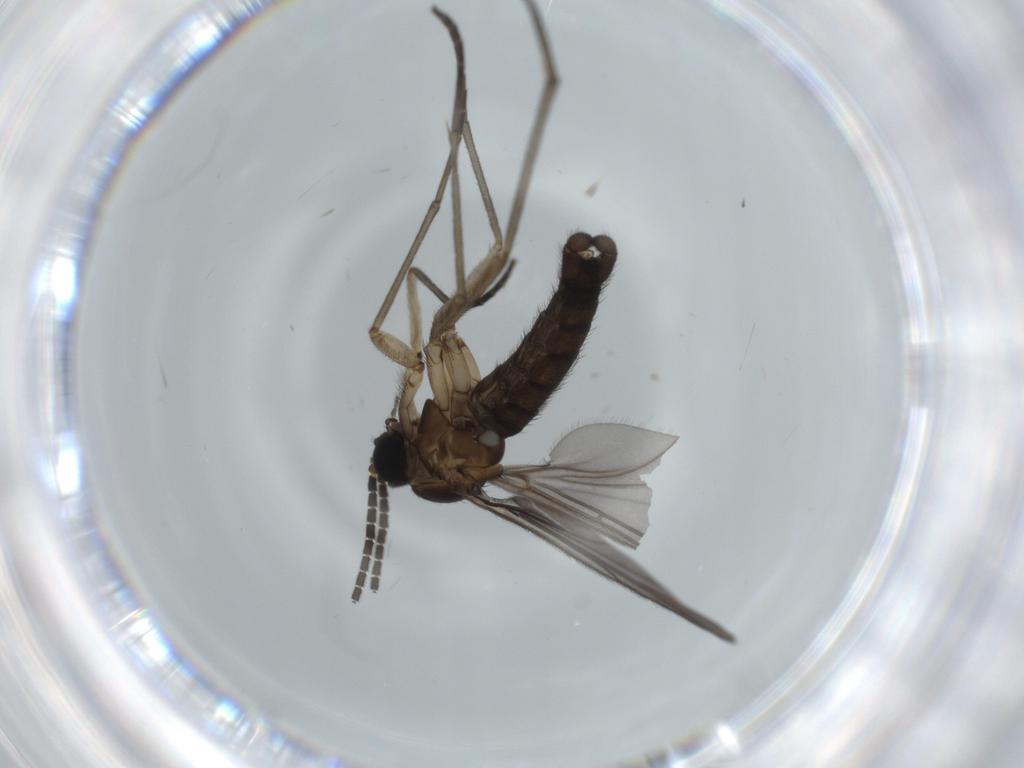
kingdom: Animalia
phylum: Arthropoda
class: Insecta
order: Diptera
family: Sciaridae
